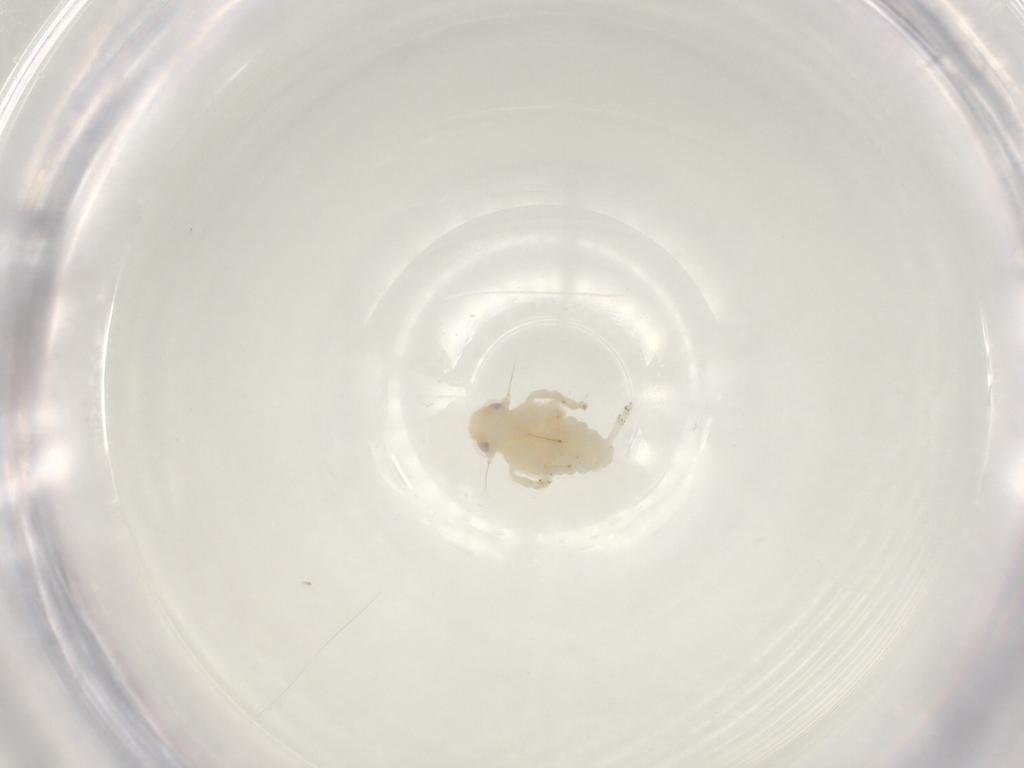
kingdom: Animalia
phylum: Arthropoda
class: Insecta
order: Hemiptera
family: Nogodinidae
